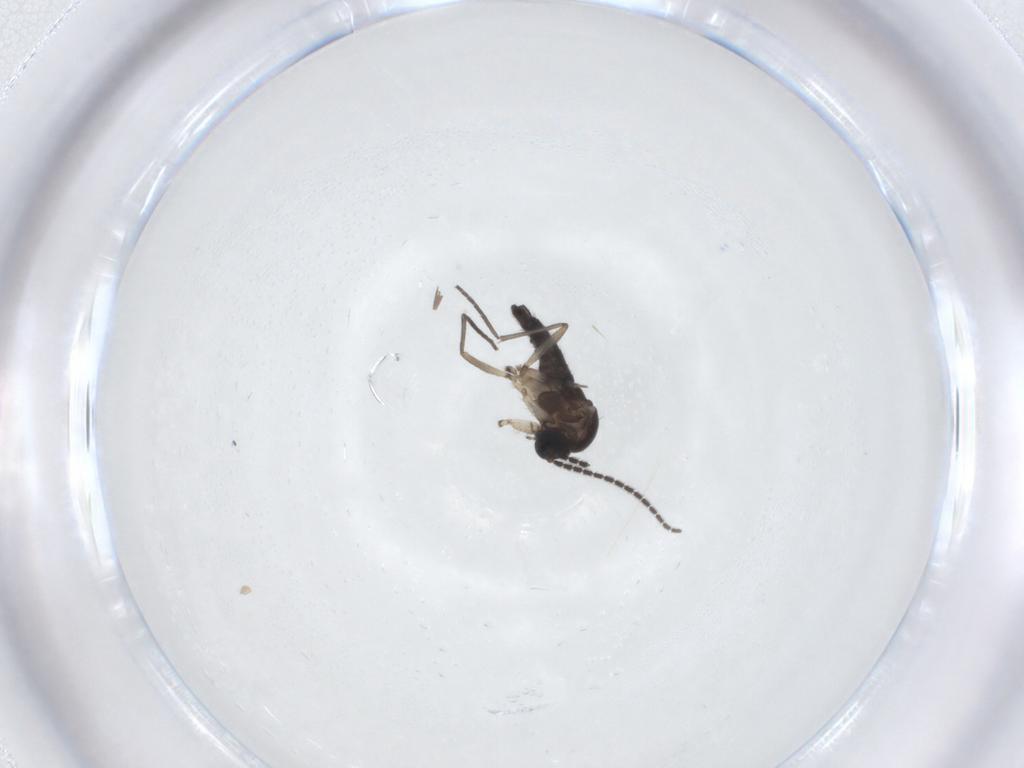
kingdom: Animalia
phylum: Arthropoda
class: Insecta
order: Diptera
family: Sciaridae
